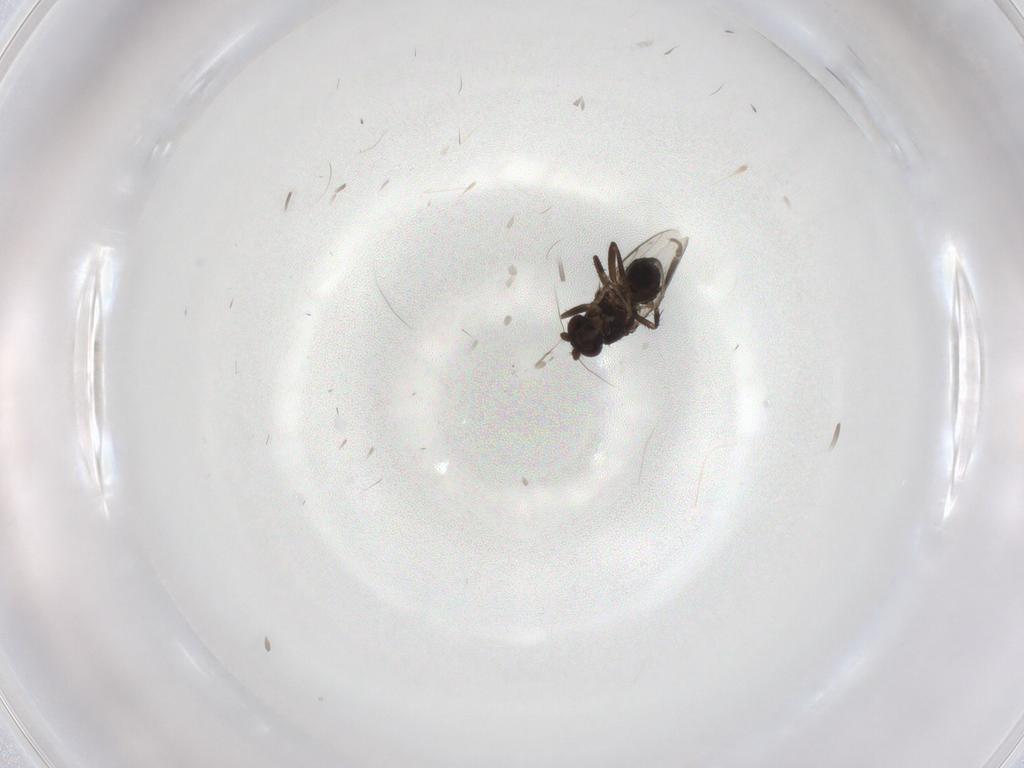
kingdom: Animalia
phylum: Arthropoda
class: Insecta
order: Diptera
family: Sphaeroceridae
